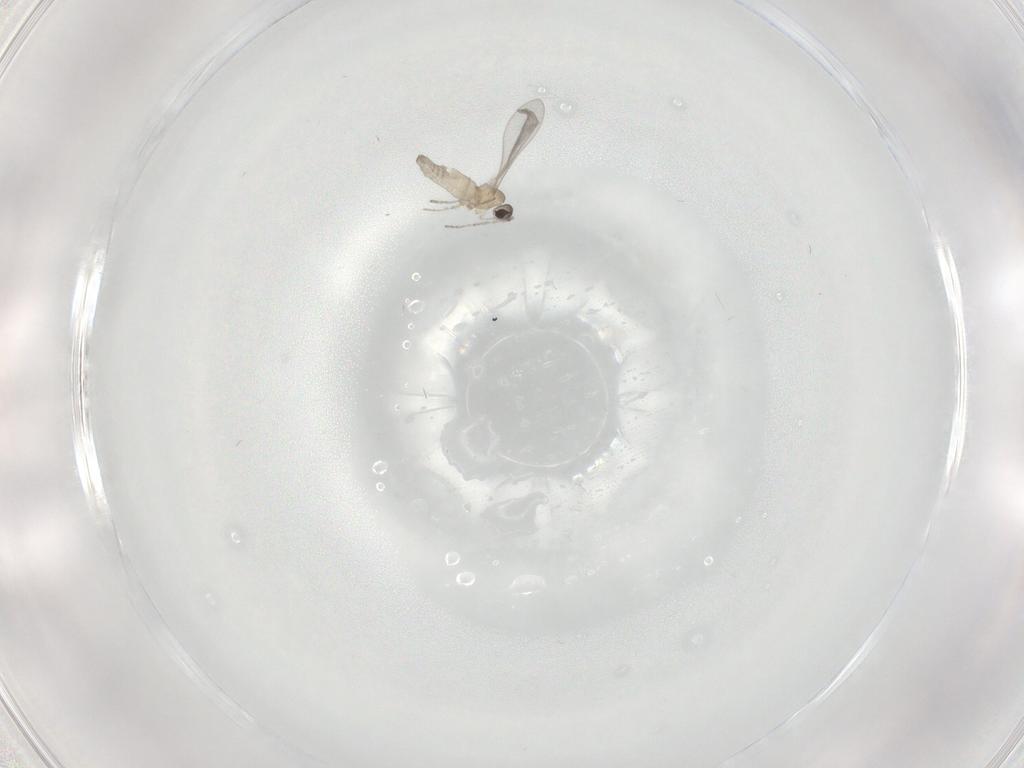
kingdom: Animalia
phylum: Arthropoda
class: Insecta
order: Diptera
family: Cecidomyiidae
